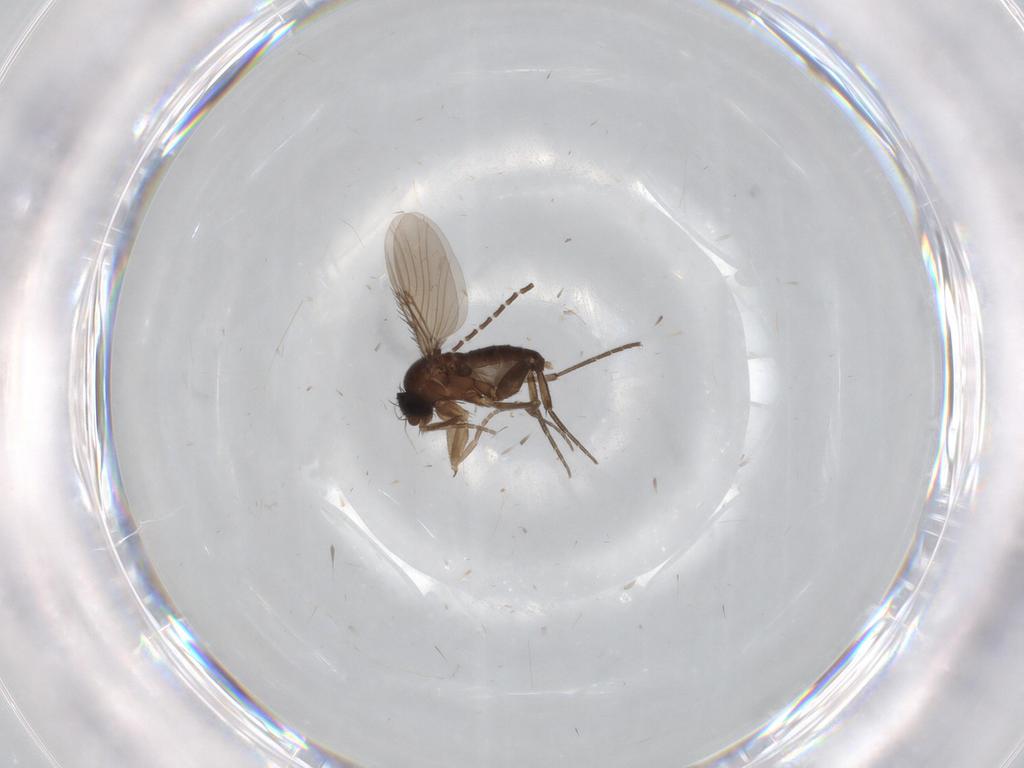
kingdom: Animalia
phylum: Arthropoda
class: Insecta
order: Diptera
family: Phoridae
